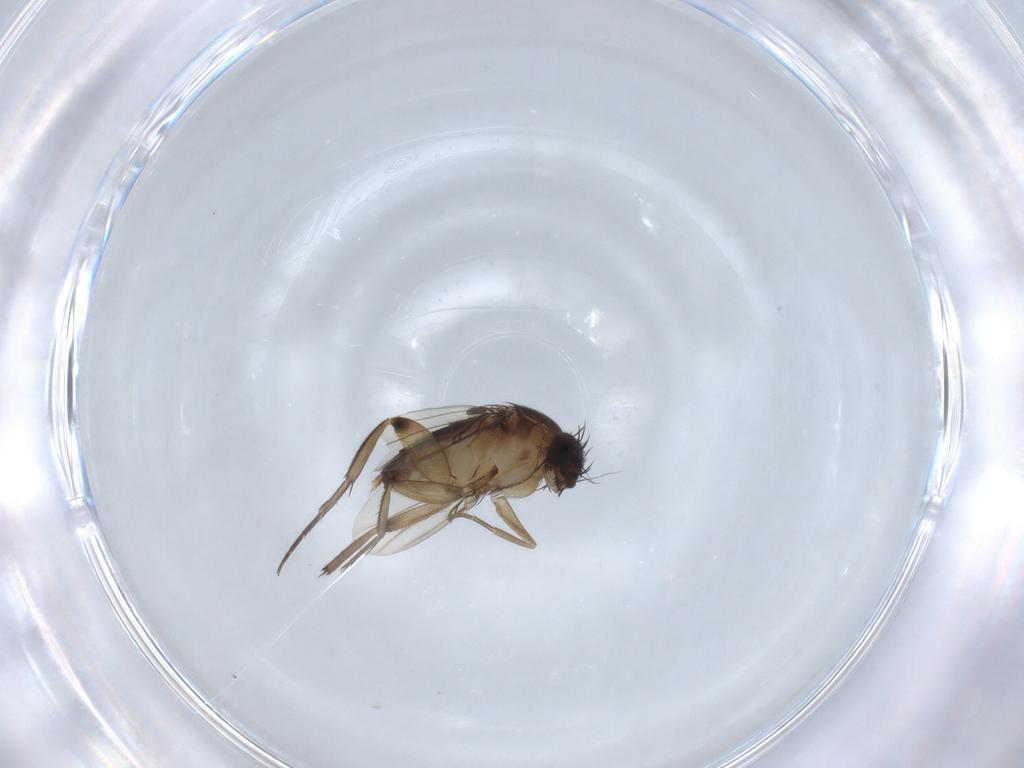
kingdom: Animalia
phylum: Arthropoda
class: Insecta
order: Diptera
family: Phoridae
